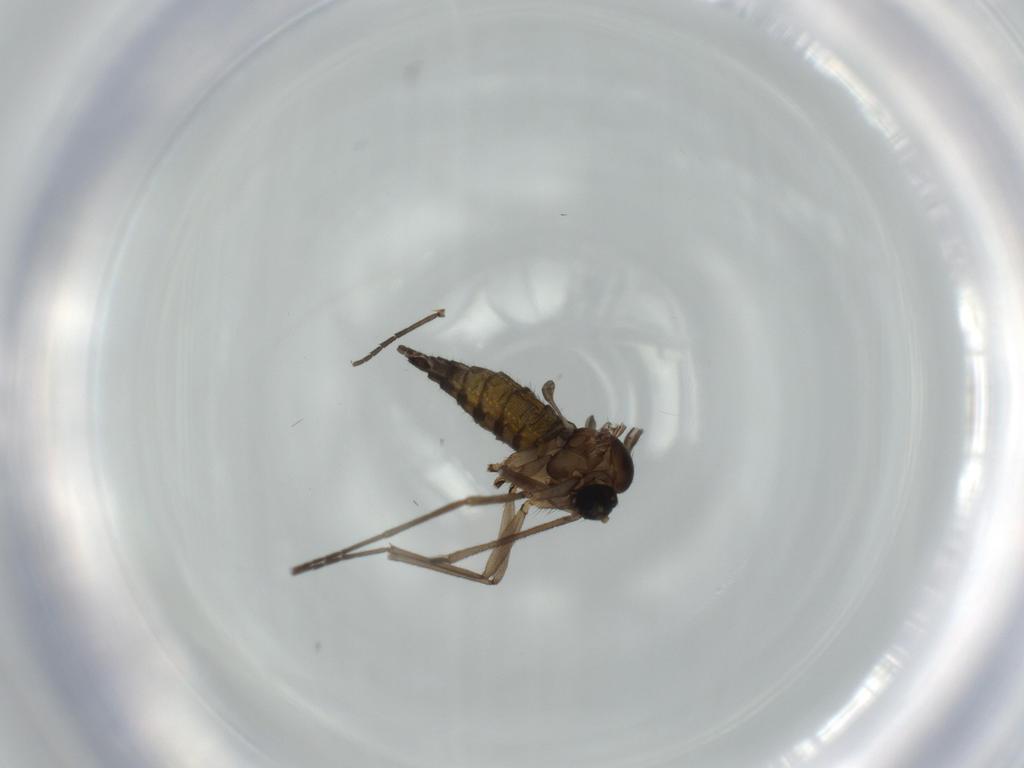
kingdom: Animalia
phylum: Arthropoda
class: Insecta
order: Diptera
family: Sciaridae
